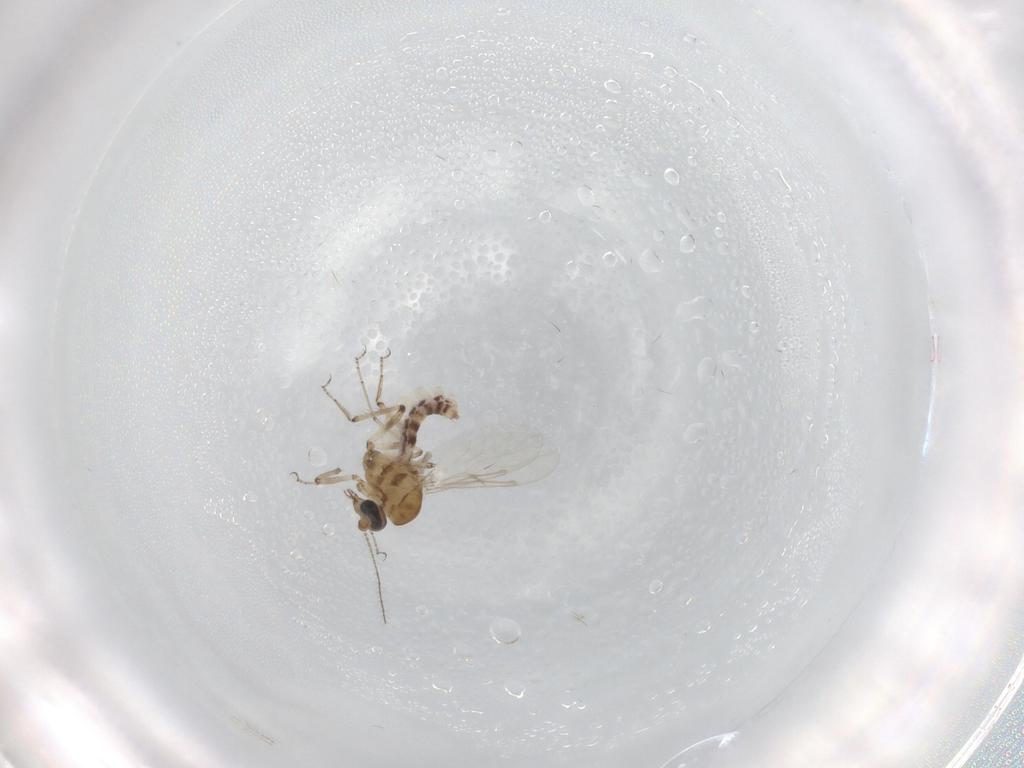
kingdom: Animalia
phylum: Arthropoda
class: Insecta
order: Diptera
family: Ceratopogonidae
